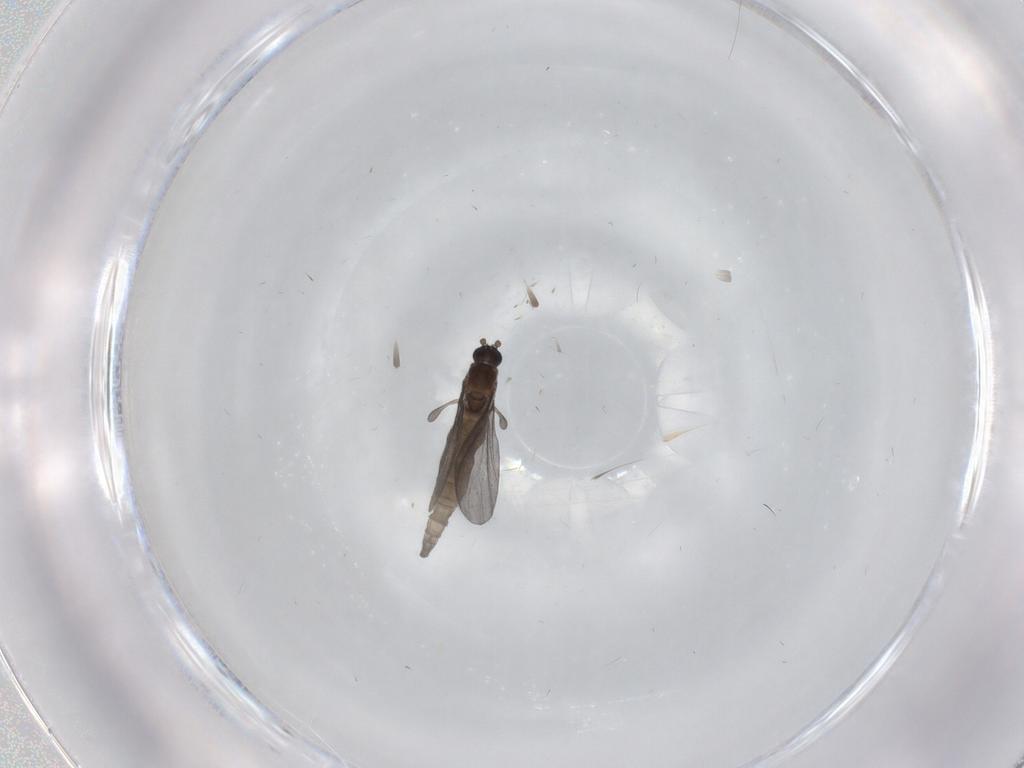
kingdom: Animalia
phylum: Arthropoda
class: Insecta
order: Diptera
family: Sciaridae
